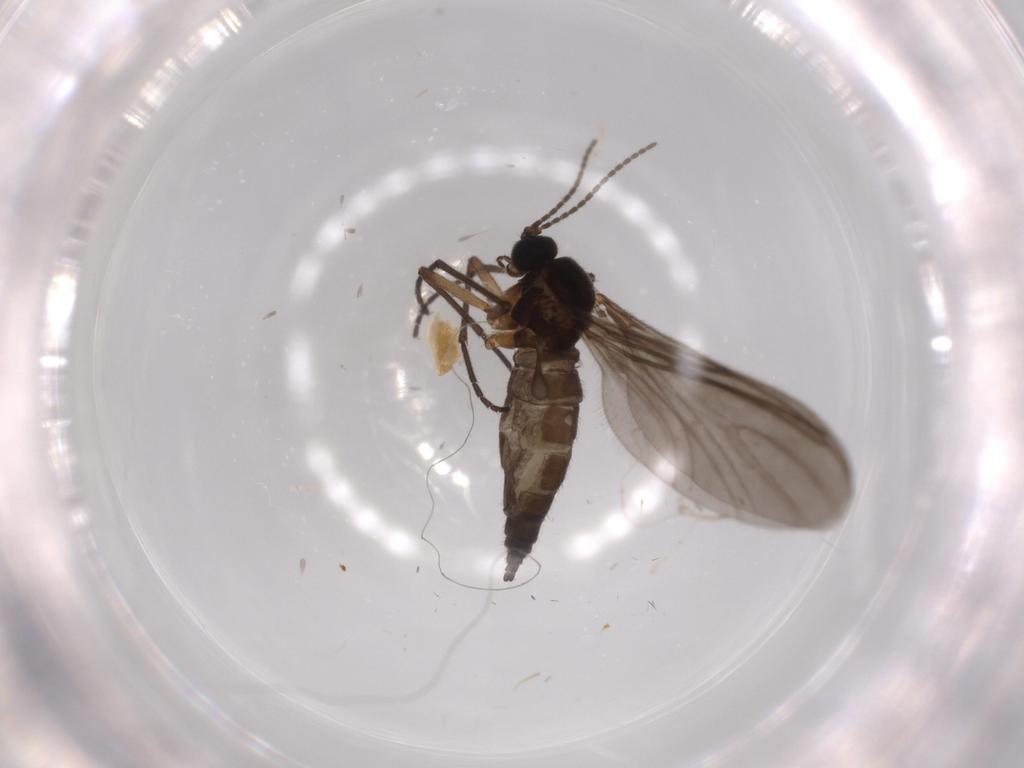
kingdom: Animalia
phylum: Arthropoda
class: Insecta
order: Diptera
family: Sciaridae
